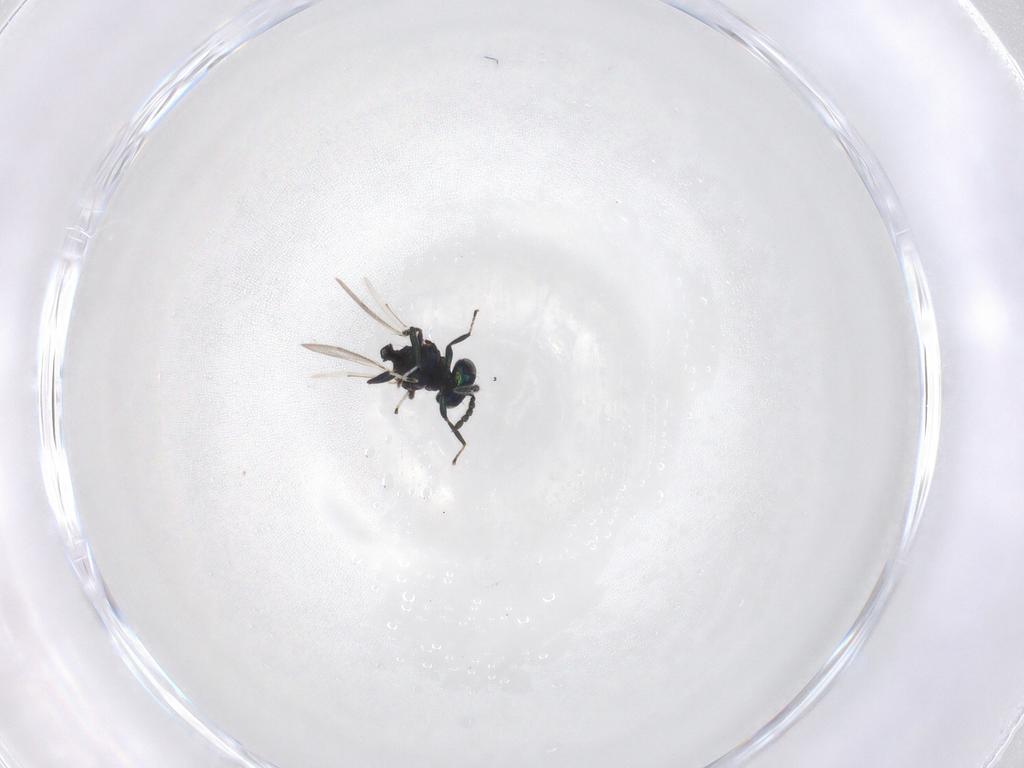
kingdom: Animalia
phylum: Arthropoda
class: Insecta
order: Hymenoptera
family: Eulophidae
